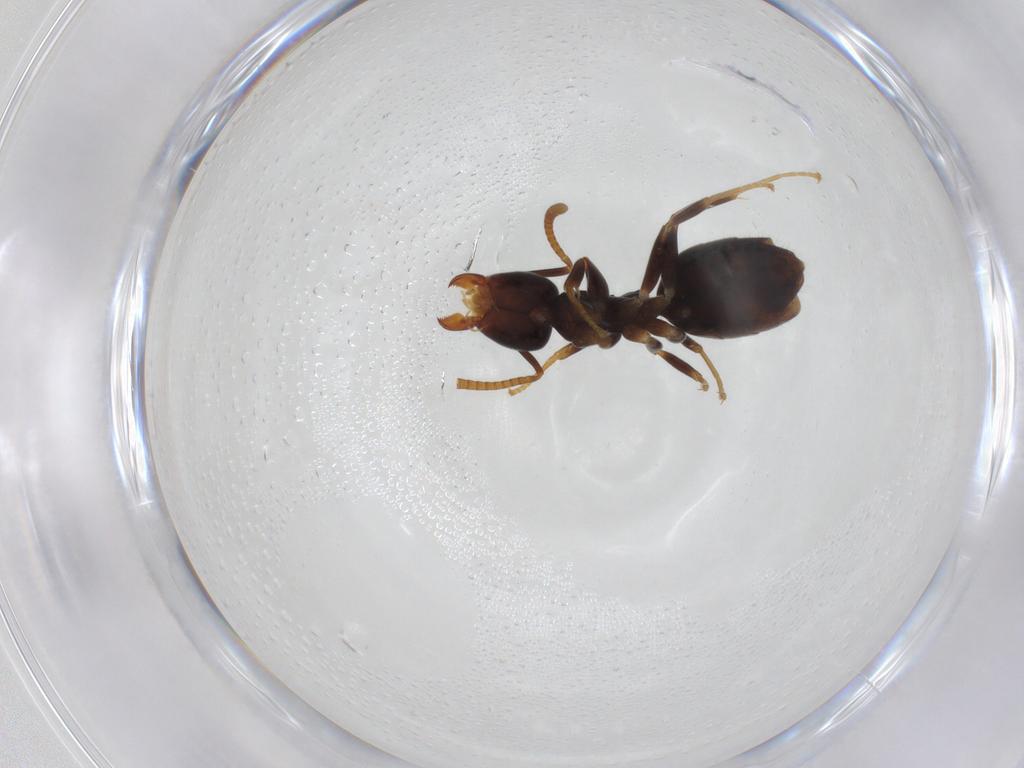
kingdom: Animalia
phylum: Arthropoda
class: Insecta
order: Hymenoptera
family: Formicidae
